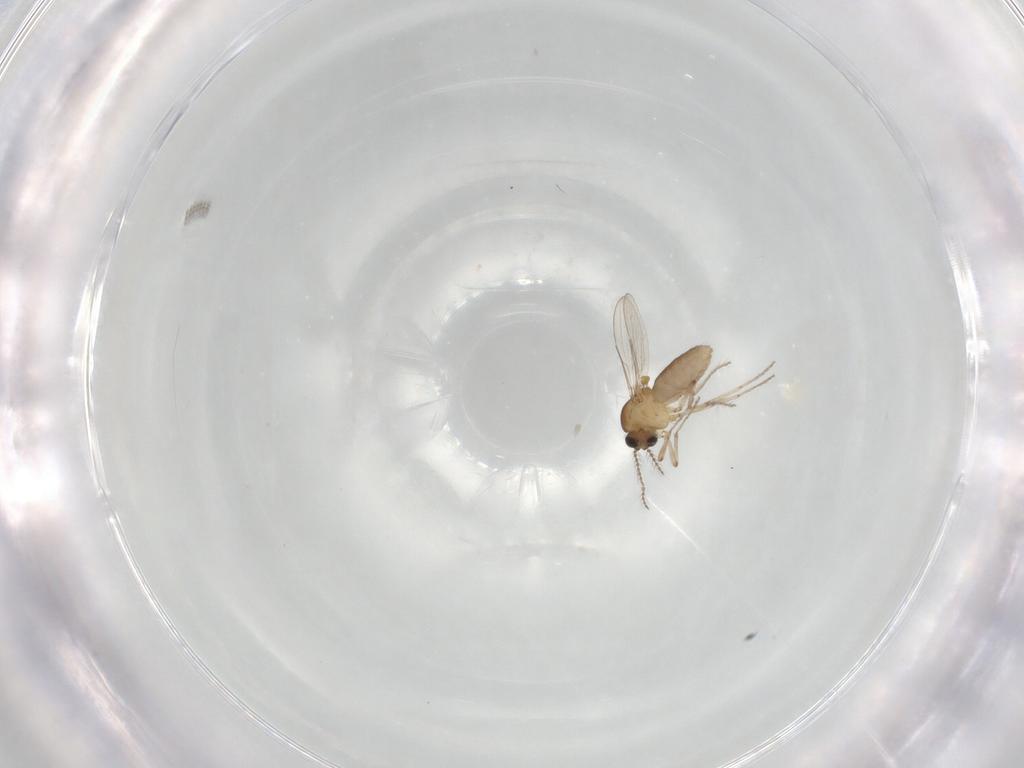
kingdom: Animalia
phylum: Arthropoda
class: Insecta
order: Diptera
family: Ceratopogonidae
